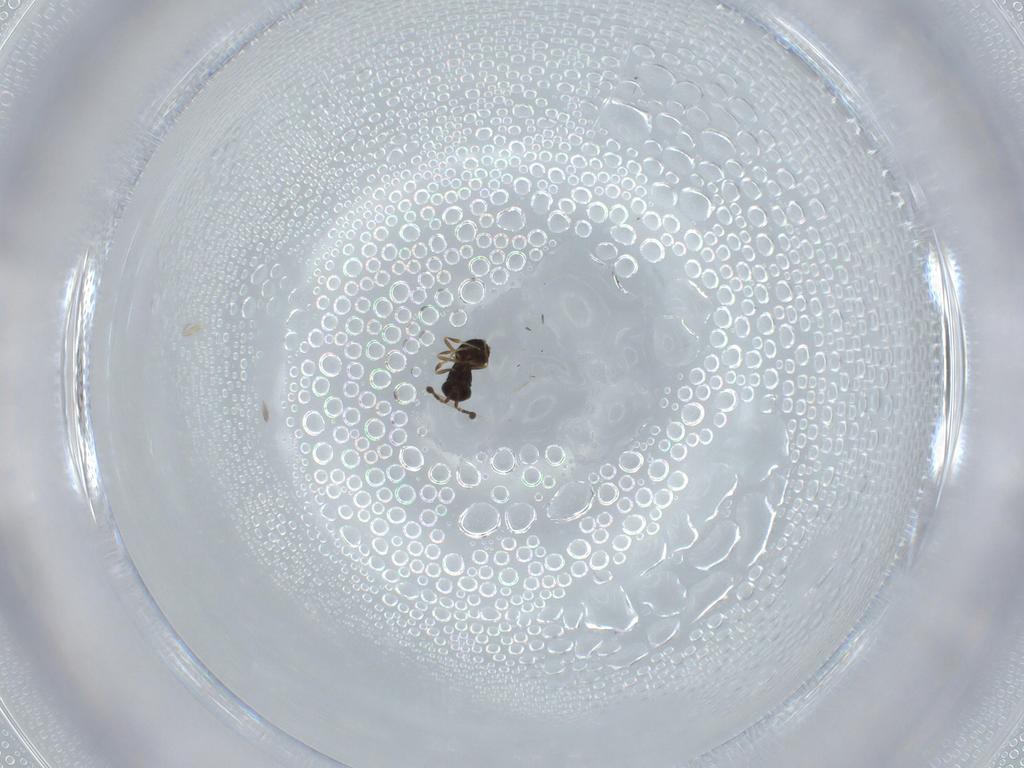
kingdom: Animalia
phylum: Arthropoda
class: Insecta
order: Hymenoptera
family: Scelionidae
